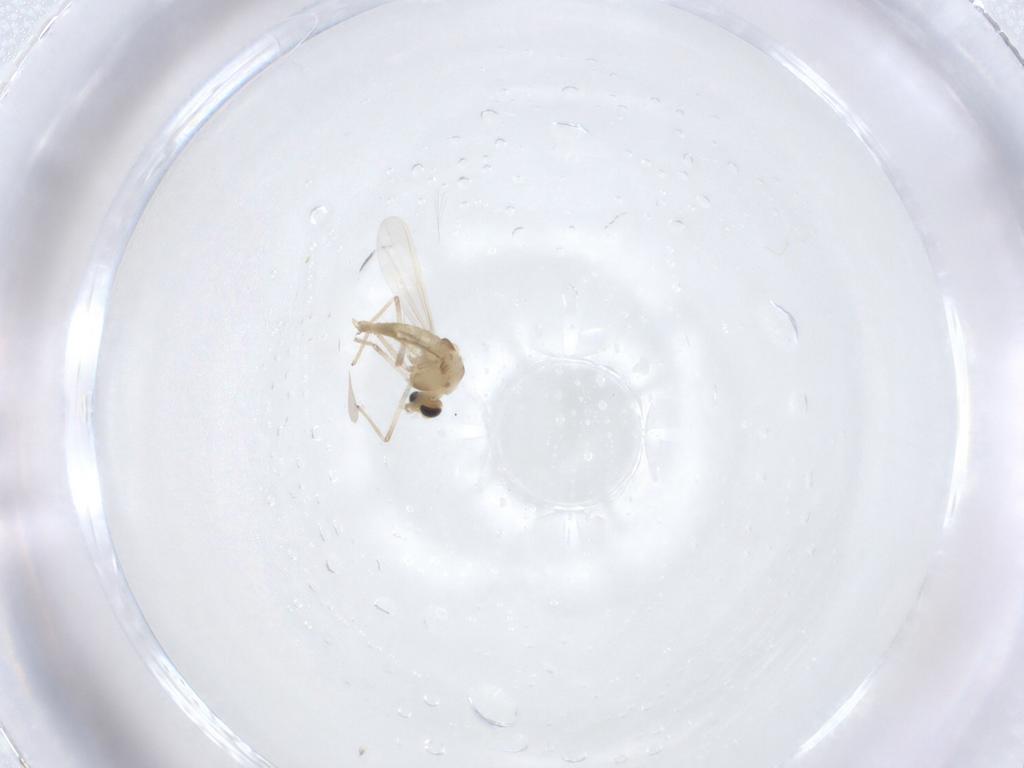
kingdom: Animalia
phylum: Arthropoda
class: Insecta
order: Diptera
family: Chironomidae
